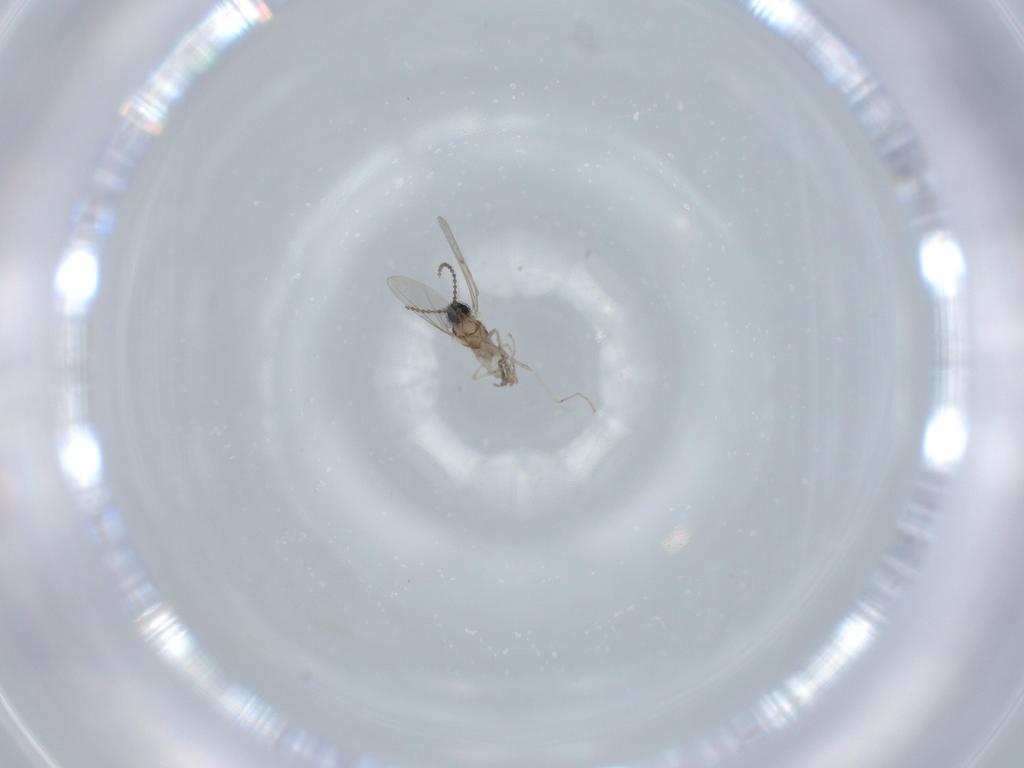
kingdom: Animalia
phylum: Arthropoda
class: Insecta
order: Diptera
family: Cecidomyiidae
